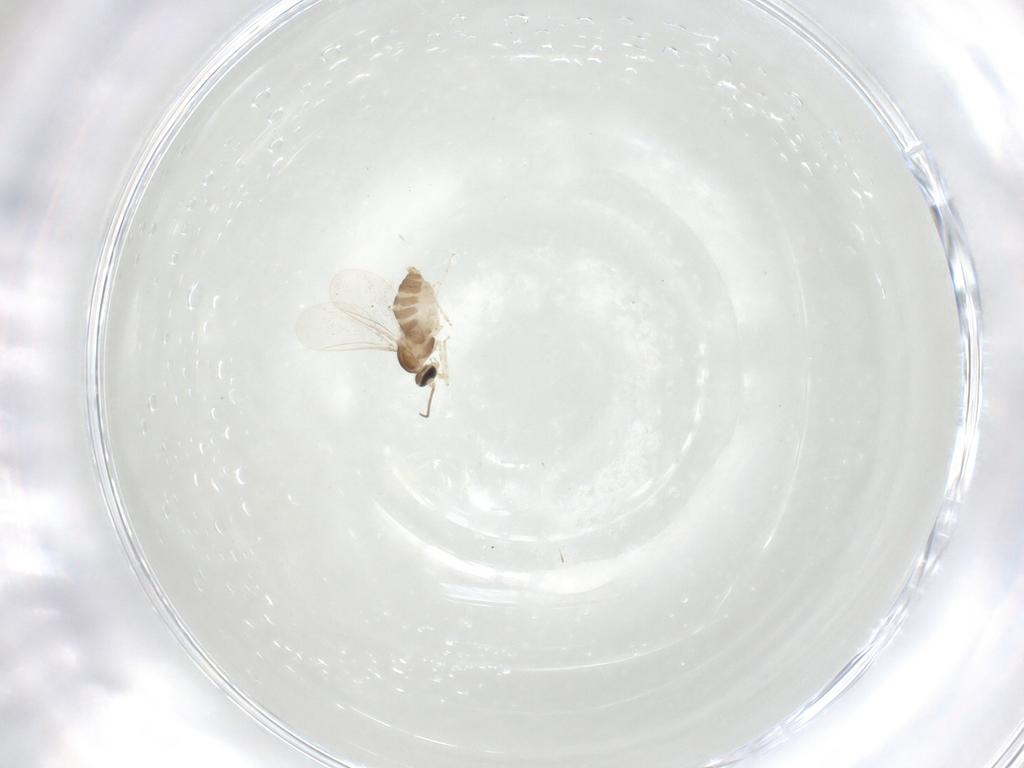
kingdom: Animalia
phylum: Arthropoda
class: Insecta
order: Diptera
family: Cecidomyiidae
